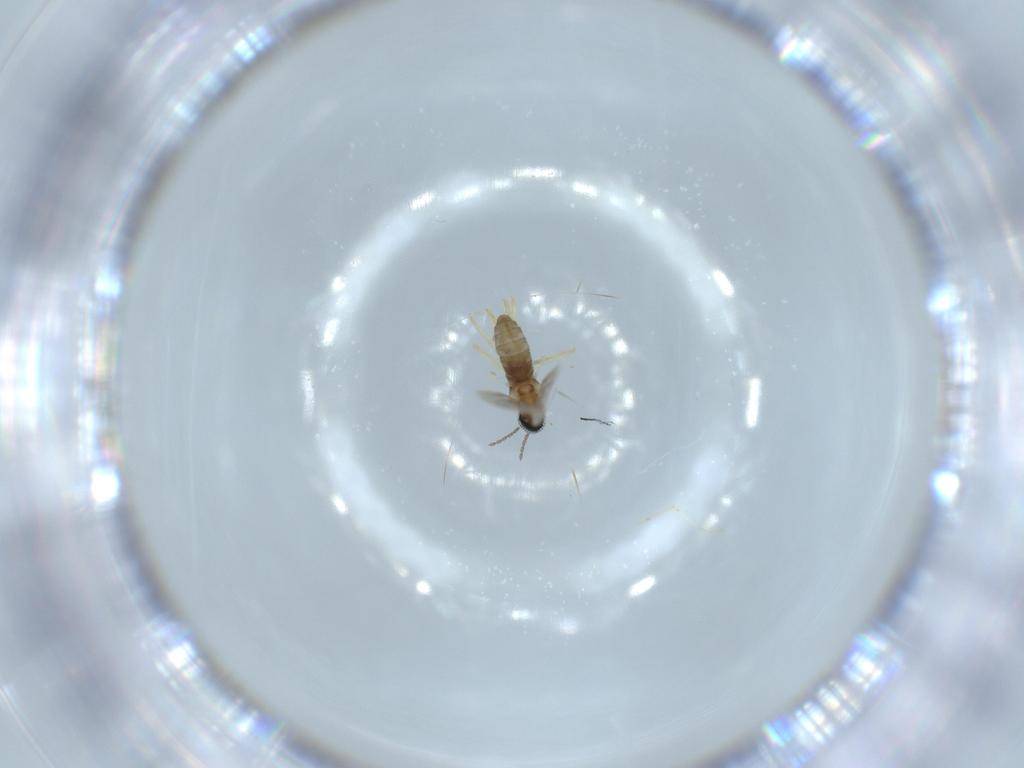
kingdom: Animalia
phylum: Arthropoda
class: Insecta
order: Diptera
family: Cecidomyiidae
